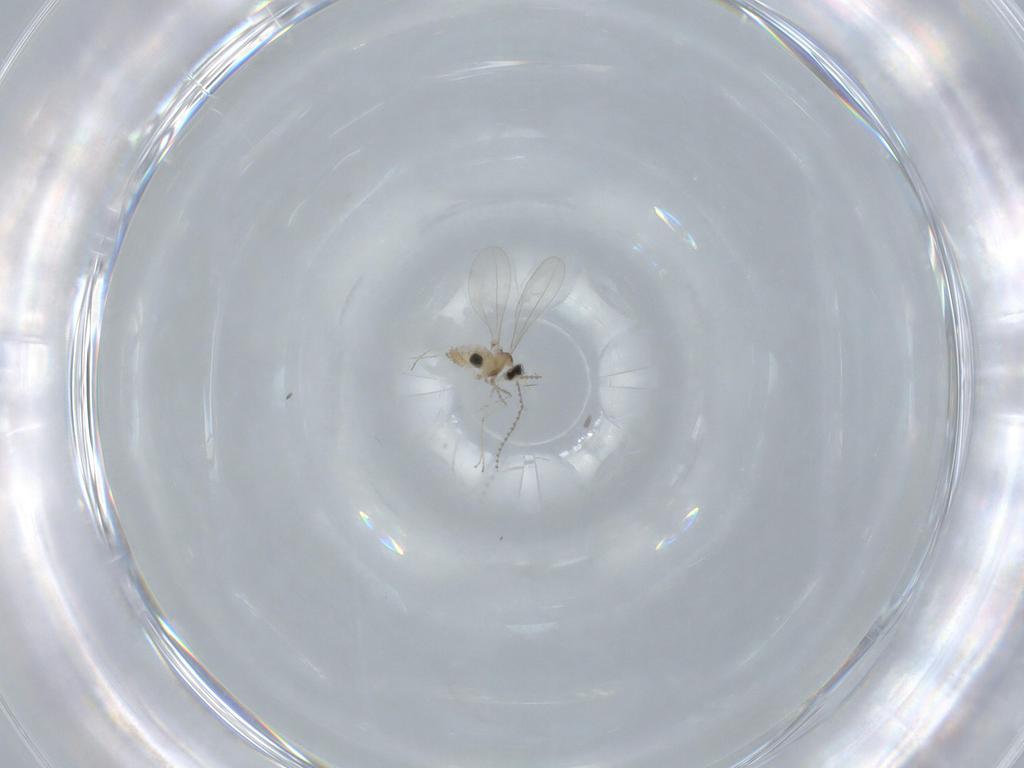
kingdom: Animalia
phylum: Arthropoda
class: Insecta
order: Diptera
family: Cecidomyiidae
